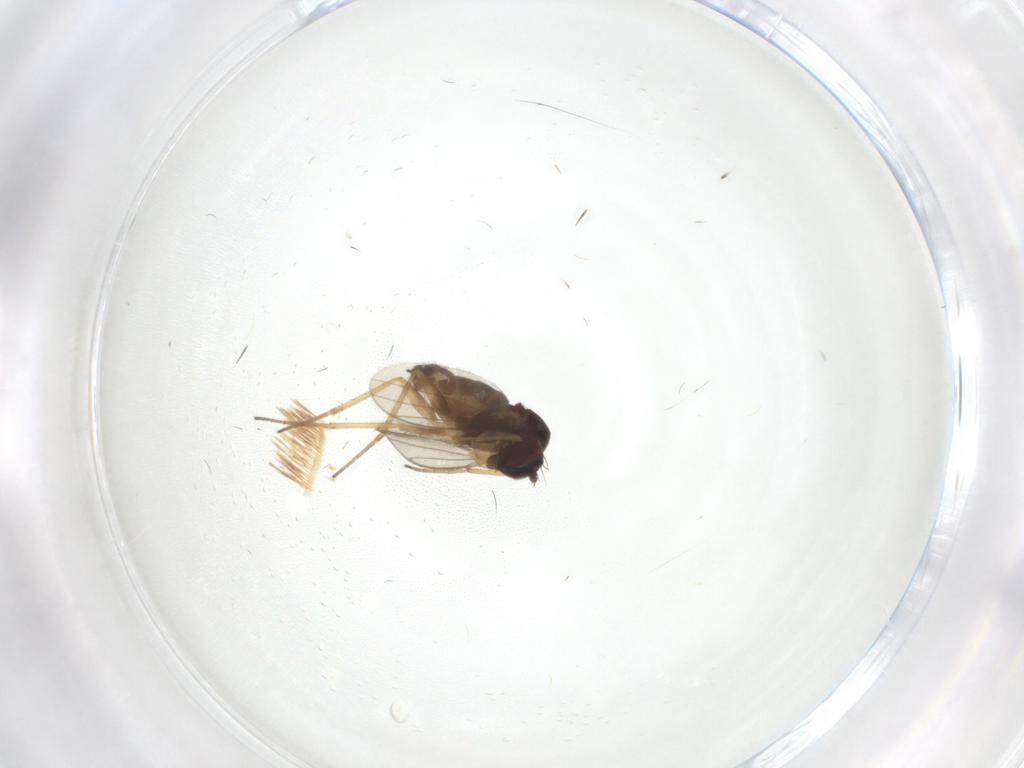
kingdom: Animalia
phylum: Arthropoda
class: Insecta
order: Diptera
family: Dolichopodidae
